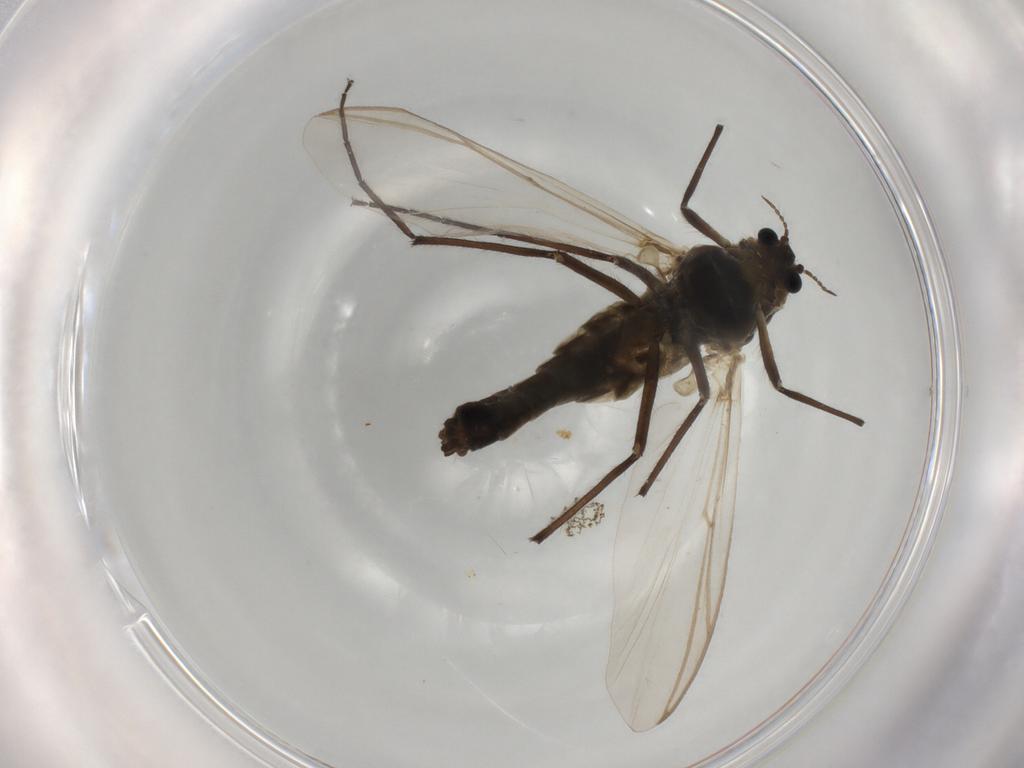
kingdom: Animalia
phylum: Arthropoda
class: Insecta
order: Diptera
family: Chironomidae
